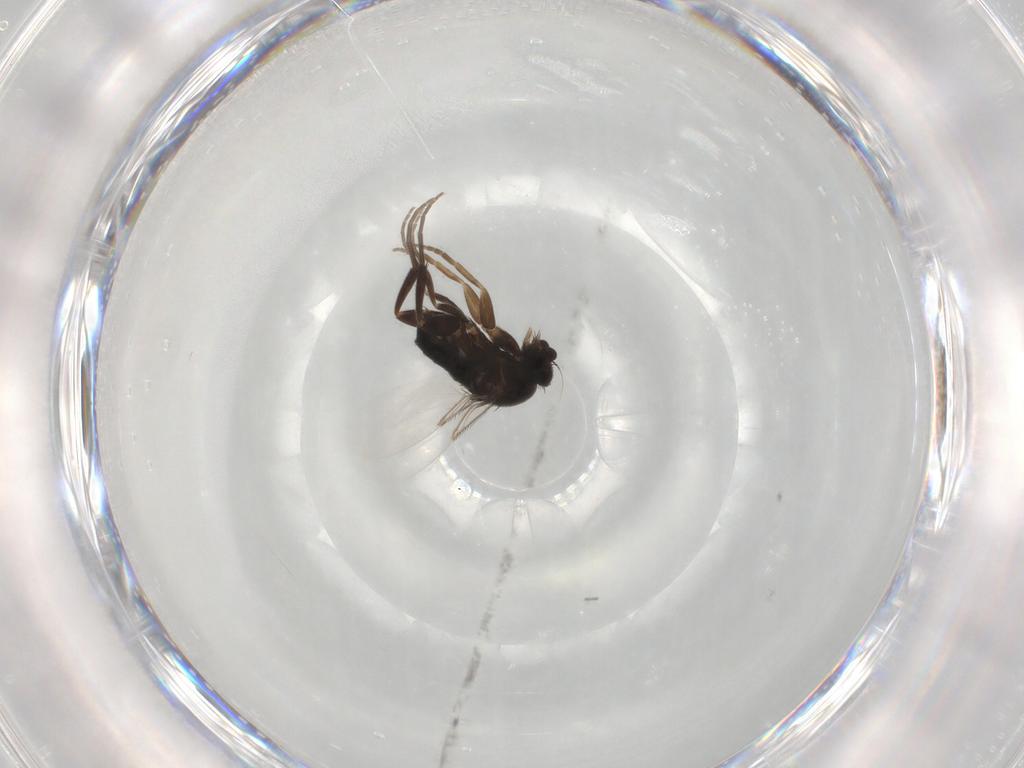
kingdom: Animalia
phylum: Arthropoda
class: Insecta
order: Diptera
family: Phoridae
